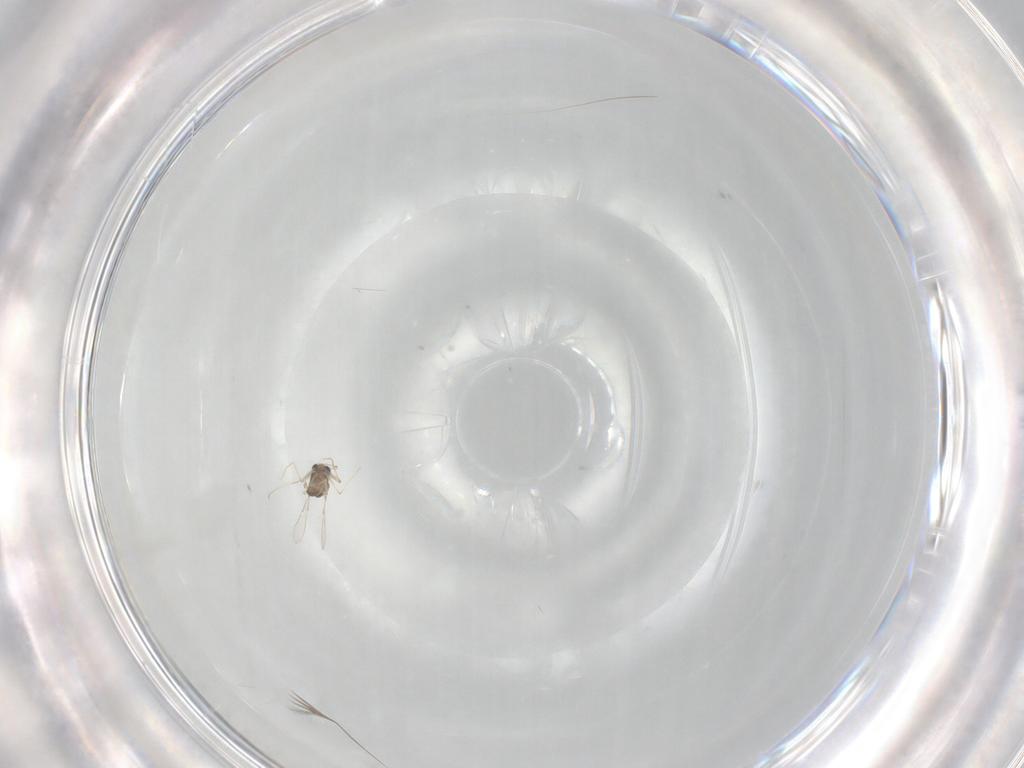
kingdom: Animalia
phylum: Arthropoda
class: Insecta
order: Diptera
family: Chironomidae
